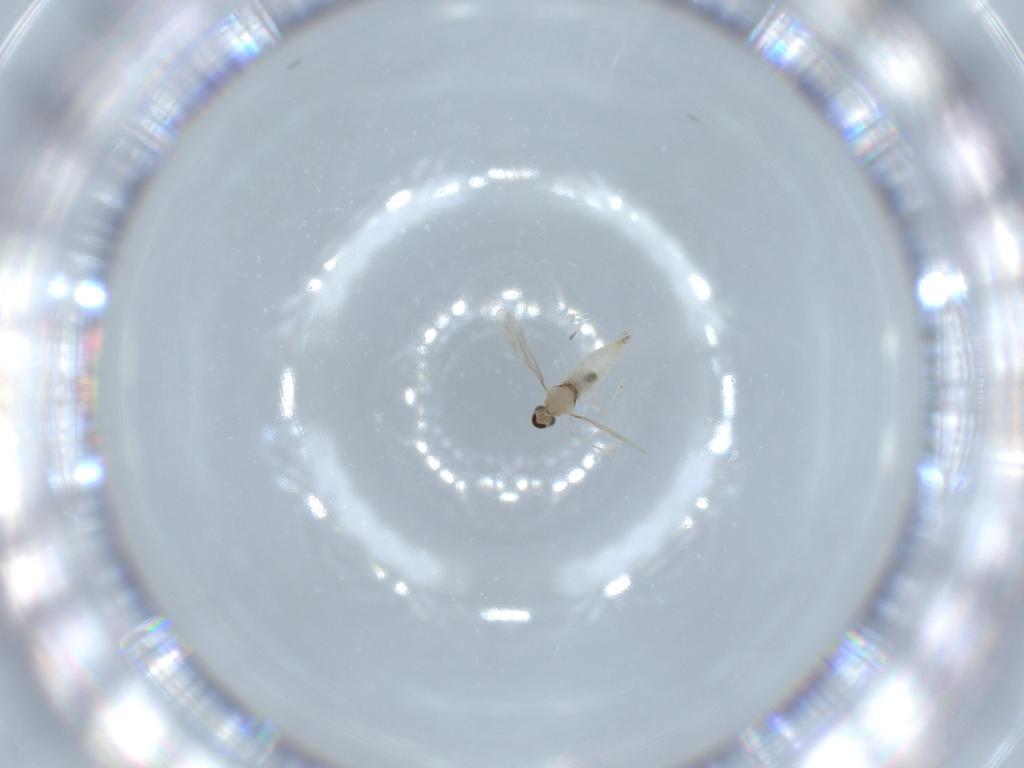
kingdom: Animalia
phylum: Arthropoda
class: Insecta
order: Diptera
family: Cecidomyiidae
